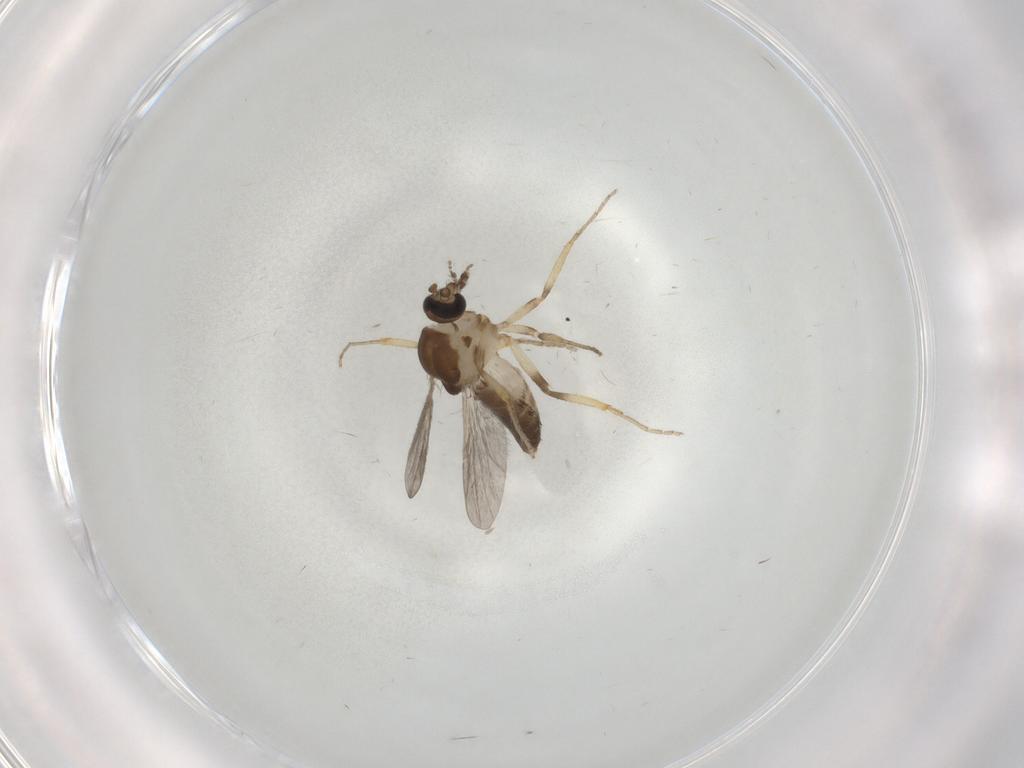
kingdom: Animalia
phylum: Arthropoda
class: Insecta
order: Diptera
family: Ceratopogonidae
